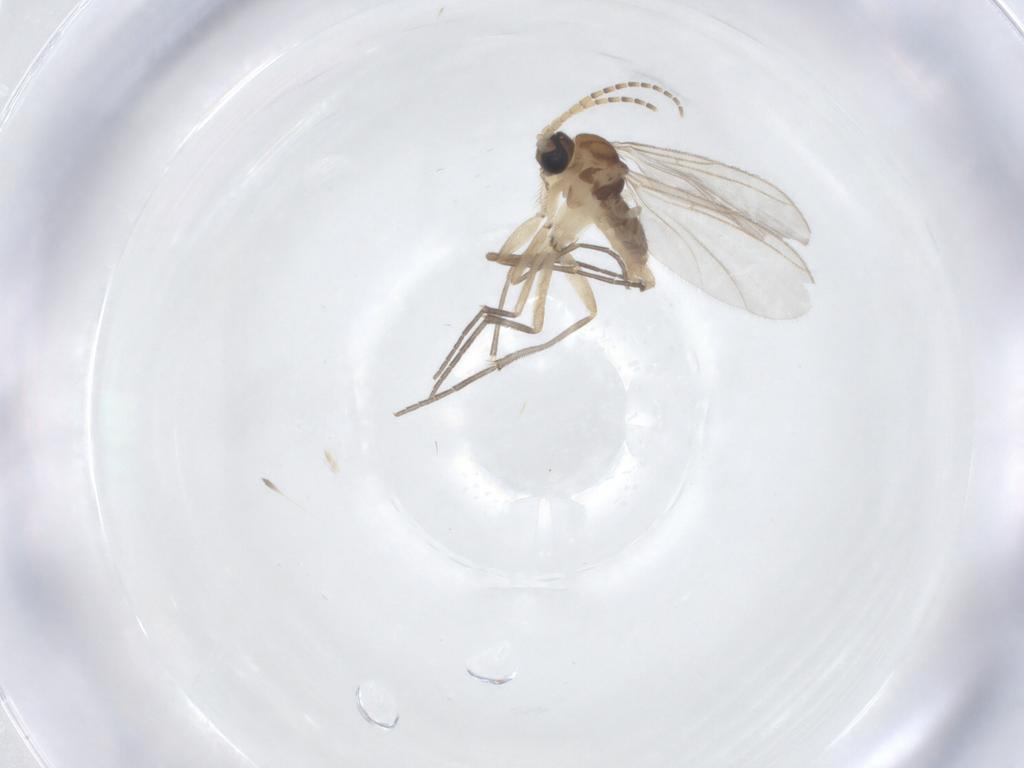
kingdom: Animalia
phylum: Arthropoda
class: Insecta
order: Diptera
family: Sciaridae
